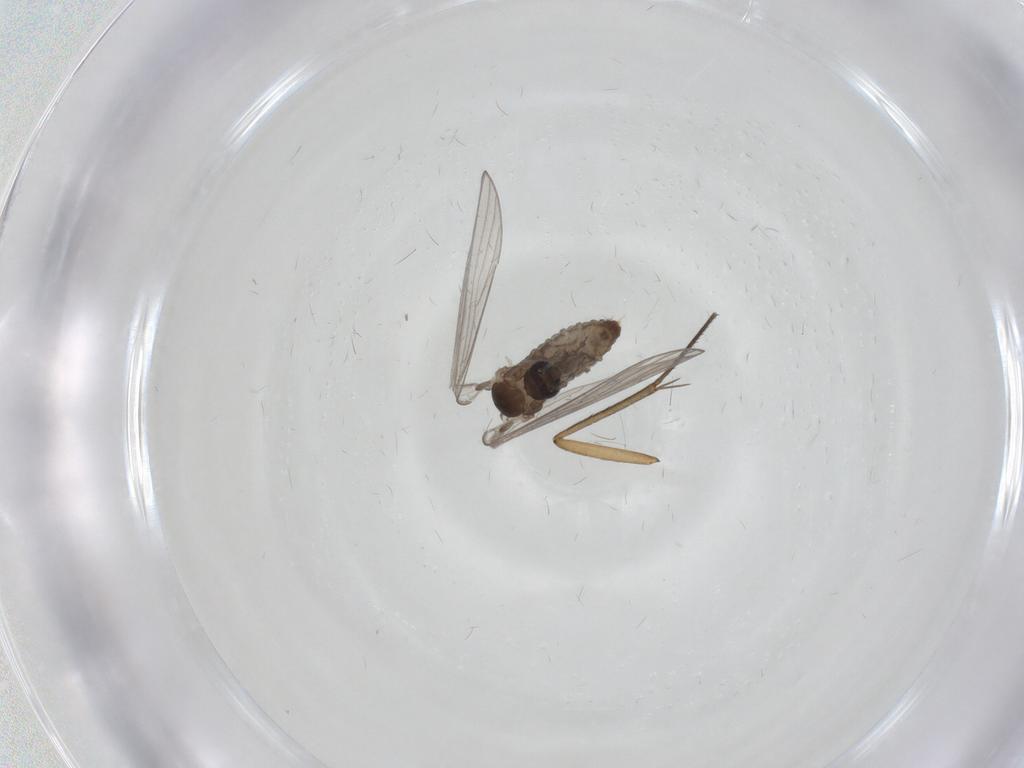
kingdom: Animalia
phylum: Arthropoda
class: Insecta
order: Diptera
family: Psychodidae
